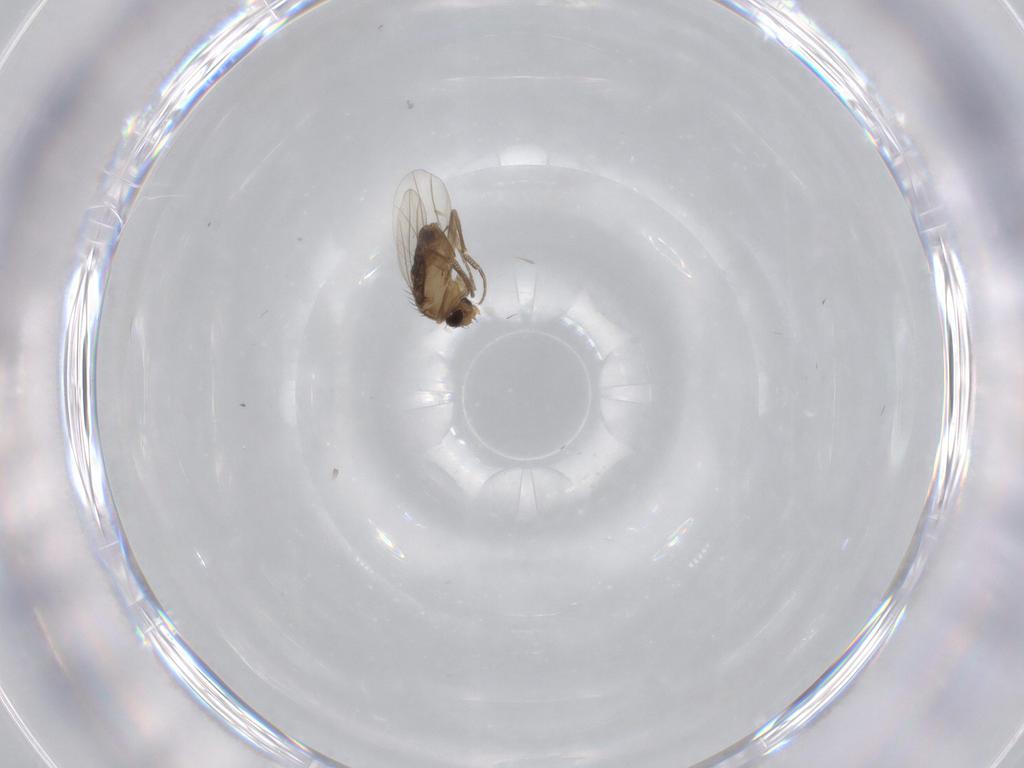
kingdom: Animalia
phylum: Arthropoda
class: Insecta
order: Diptera
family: Phoridae
